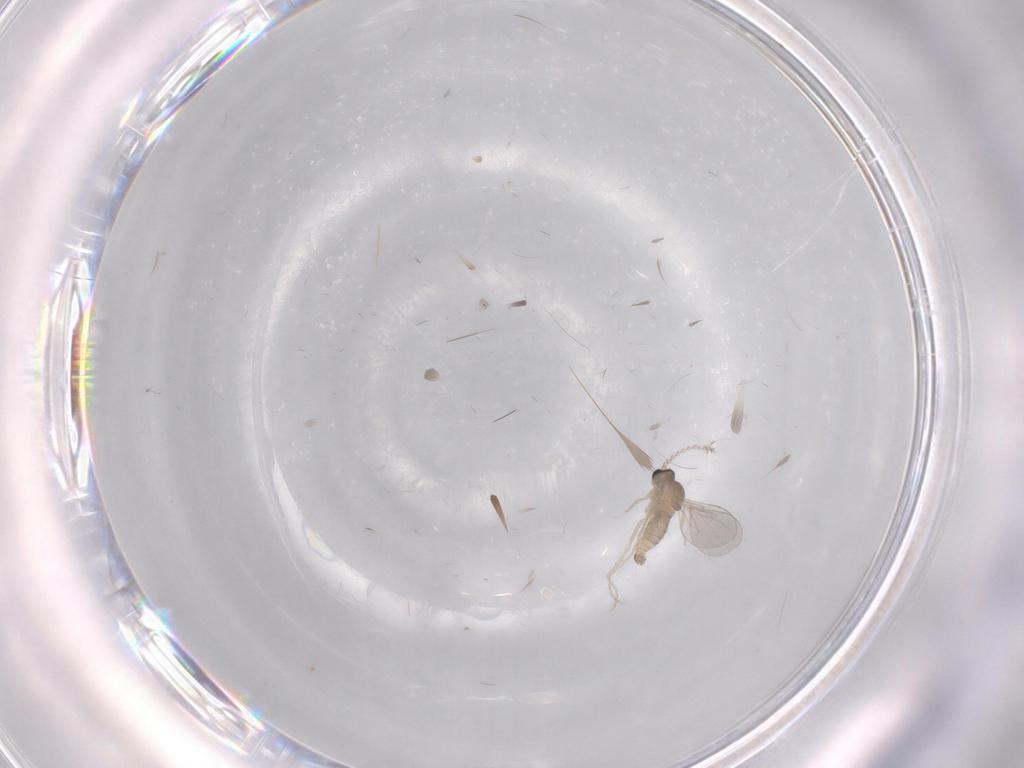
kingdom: Animalia
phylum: Arthropoda
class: Insecta
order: Diptera
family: Cecidomyiidae
